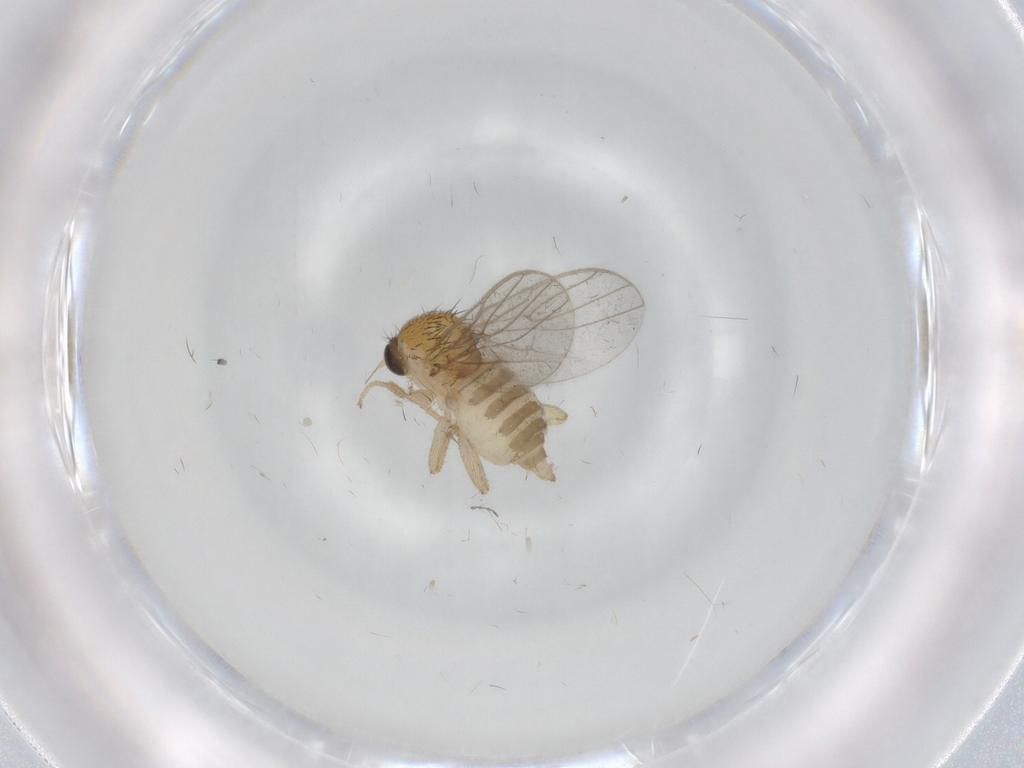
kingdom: Animalia
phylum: Arthropoda
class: Insecta
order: Diptera
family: Hybotidae
